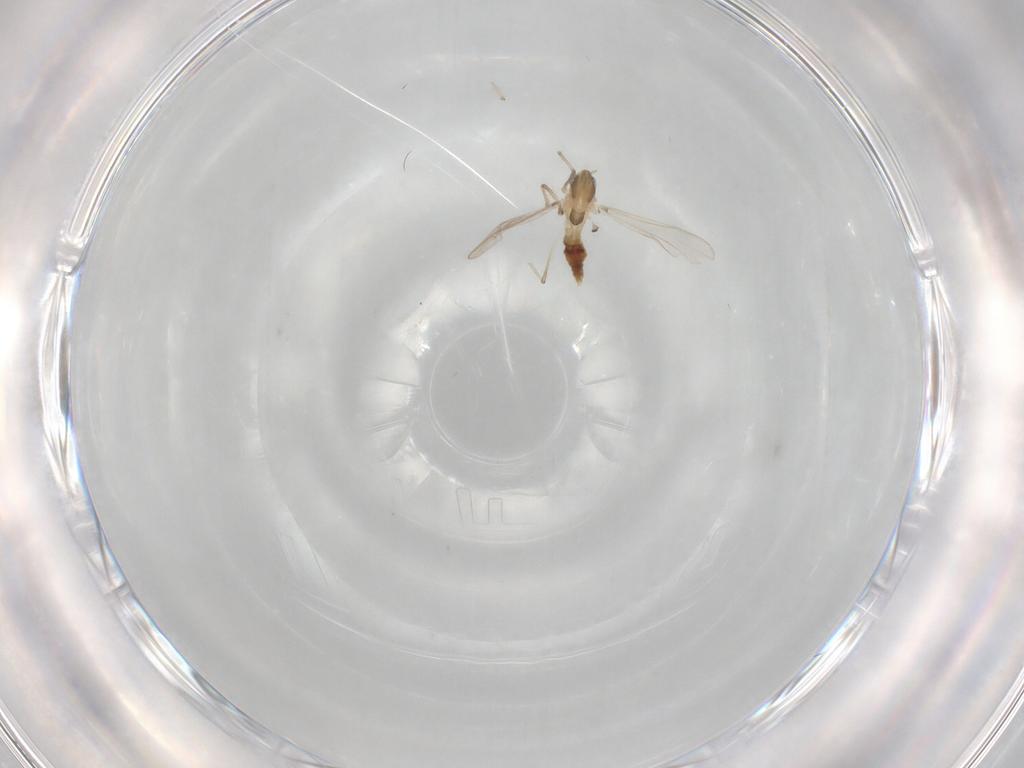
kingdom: Animalia
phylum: Arthropoda
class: Insecta
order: Diptera
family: Chironomidae
